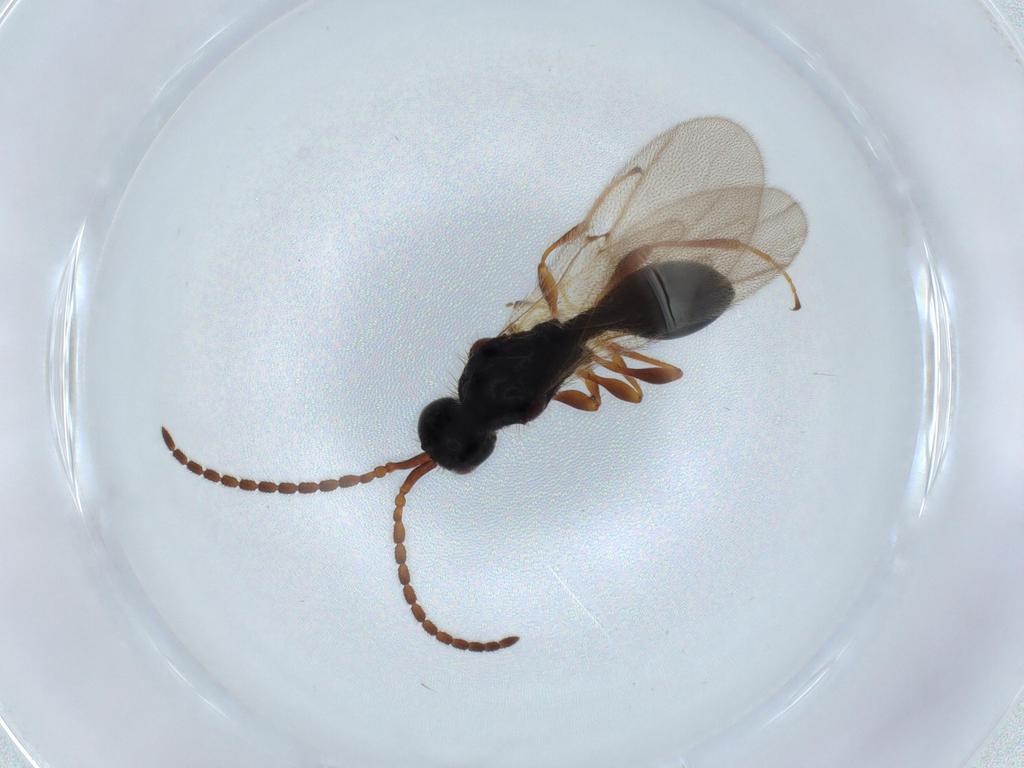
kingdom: Animalia
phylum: Arthropoda
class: Insecta
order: Hymenoptera
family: Diapriidae
